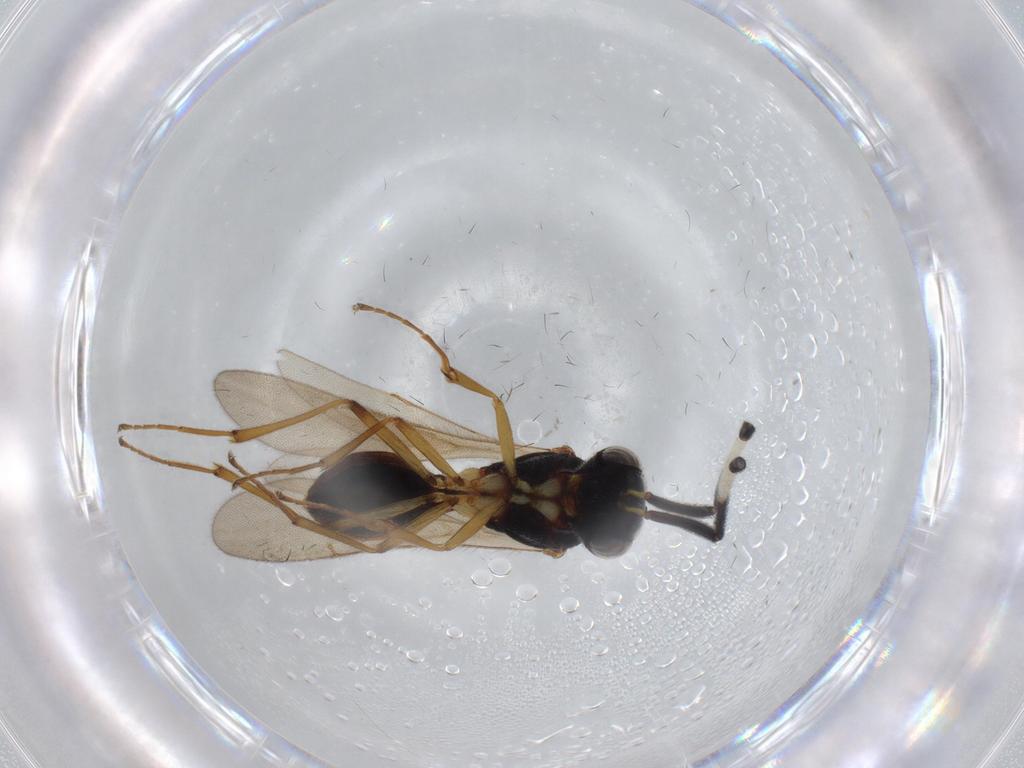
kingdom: Animalia
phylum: Arthropoda
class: Insecta
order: Hymenoptera
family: Scelionidae
